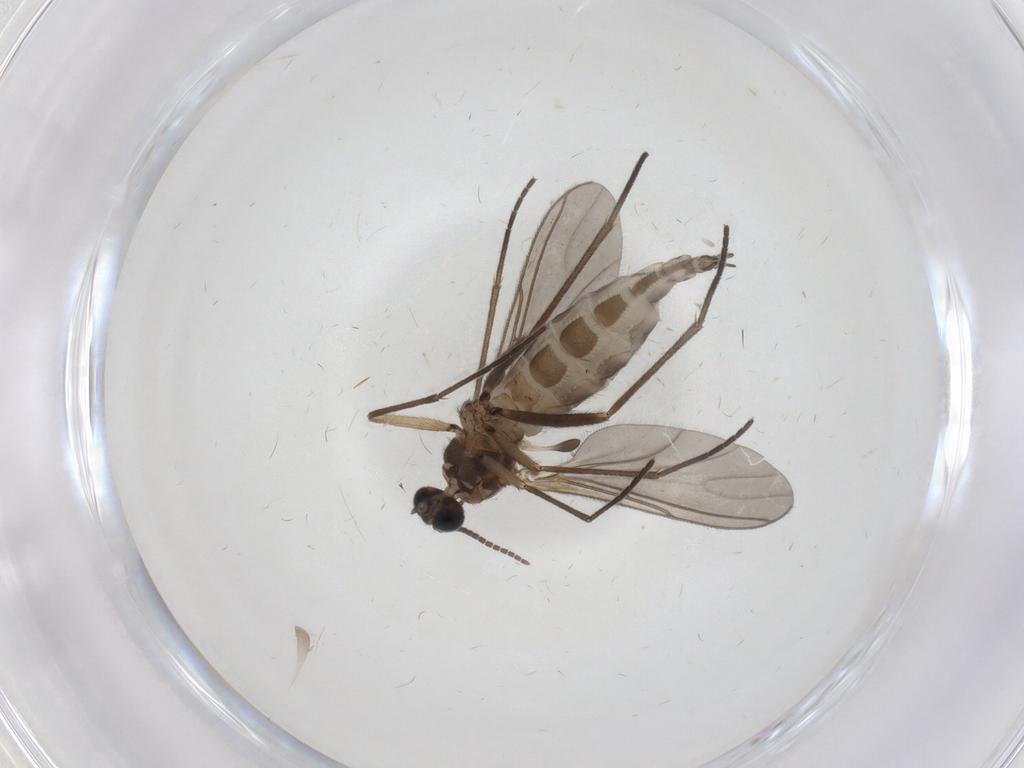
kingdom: Animalia
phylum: Arthropoda
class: Insecta
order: Diptera
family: Sciaridae
